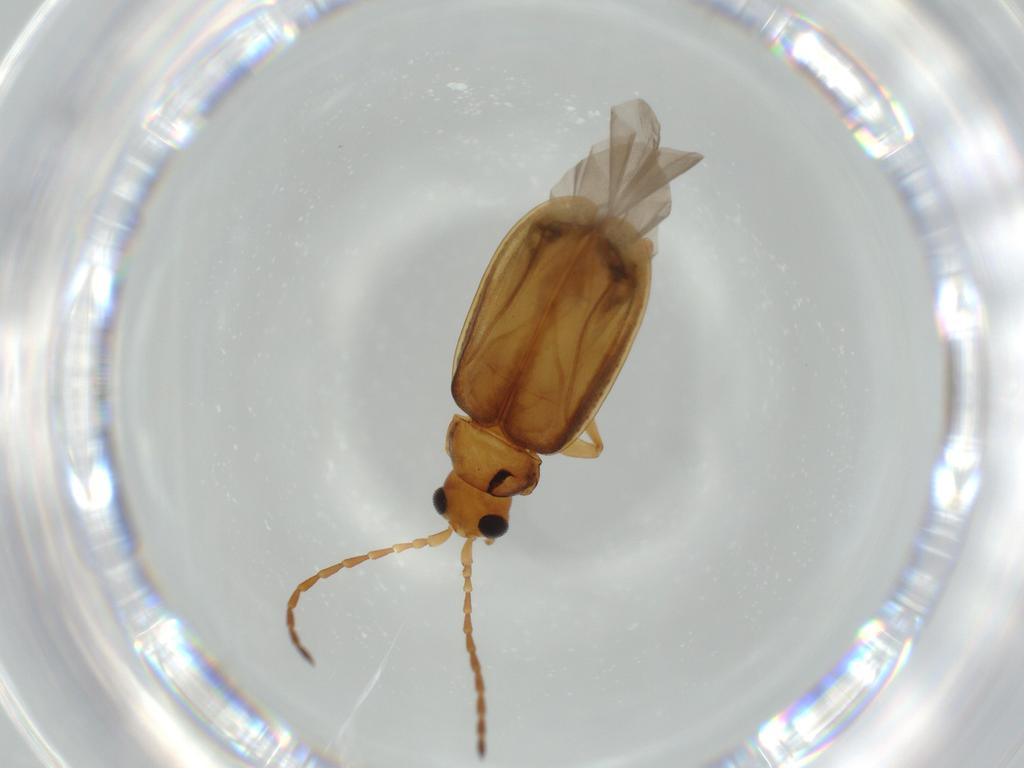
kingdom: Animalia
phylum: Arthropoda
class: Insecta
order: Coleoptera
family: Chrysomelidae
